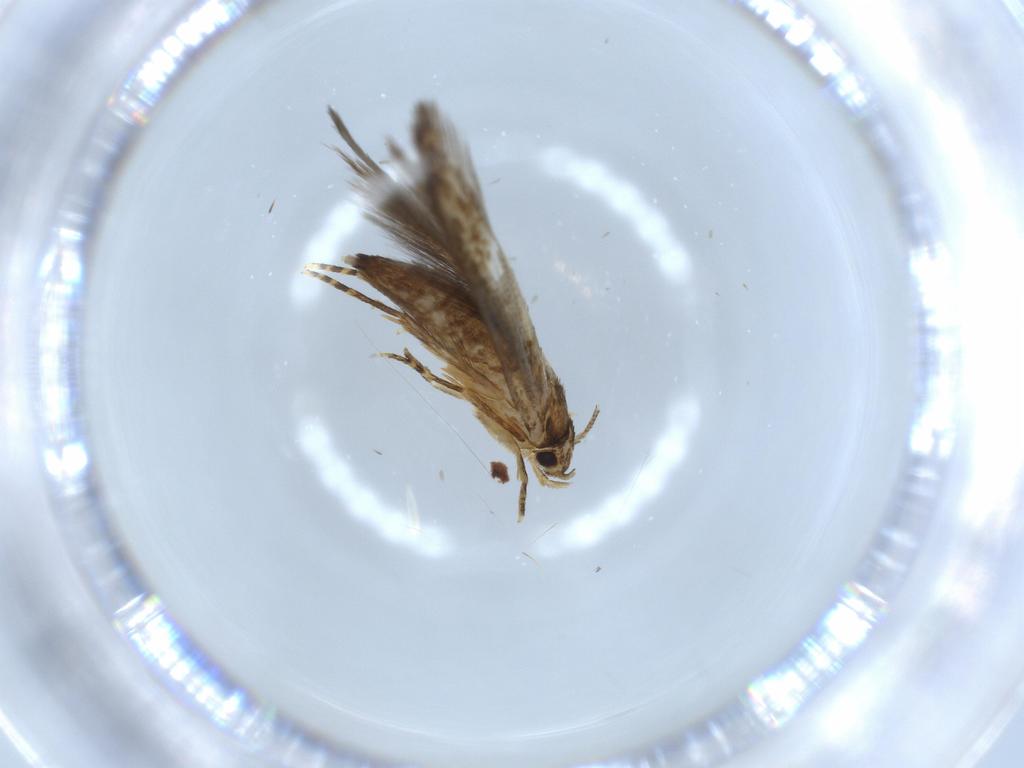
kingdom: Animalia
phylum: Arthropoda
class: Insecta
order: Lepidoptera
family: Tineidae
